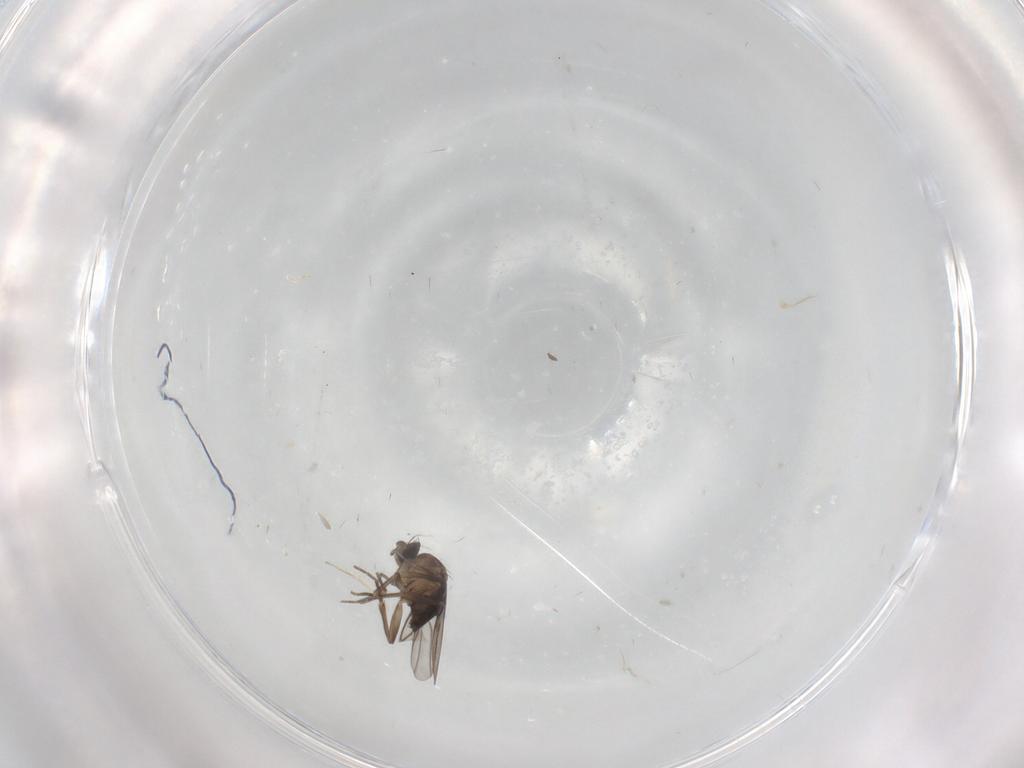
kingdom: Animalia
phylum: Arthropoda
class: Insecta
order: Diptera
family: Phoridae
